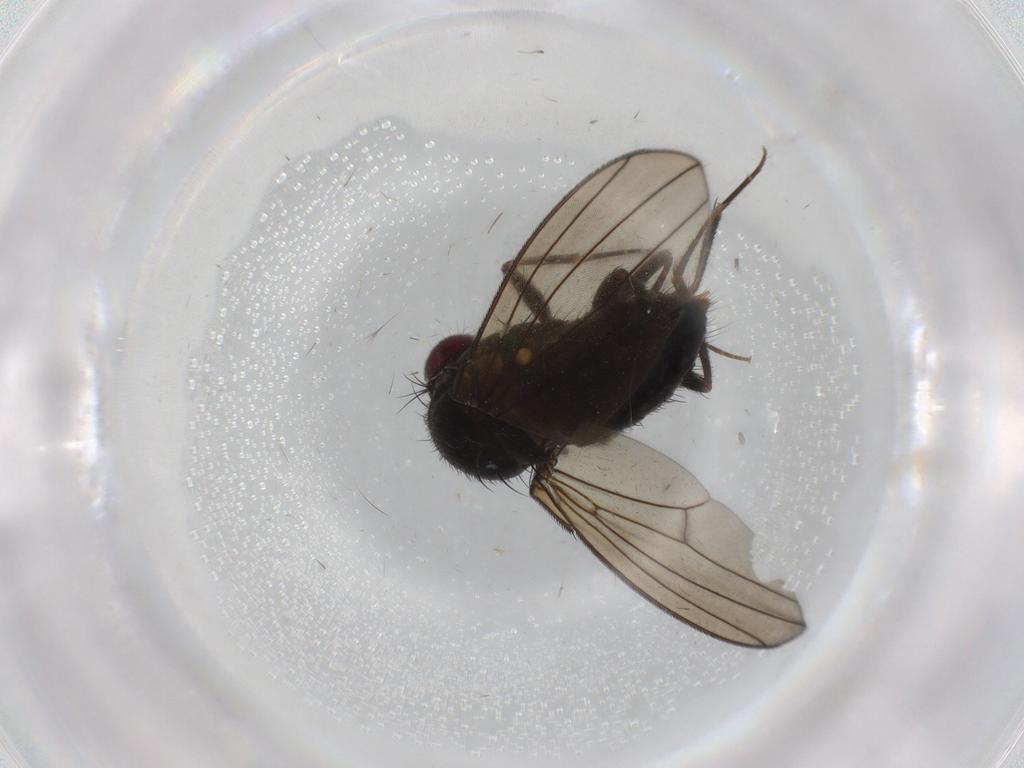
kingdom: Animalia
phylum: Arthropoda
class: Insecta
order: Diptera
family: Drosophilidae
